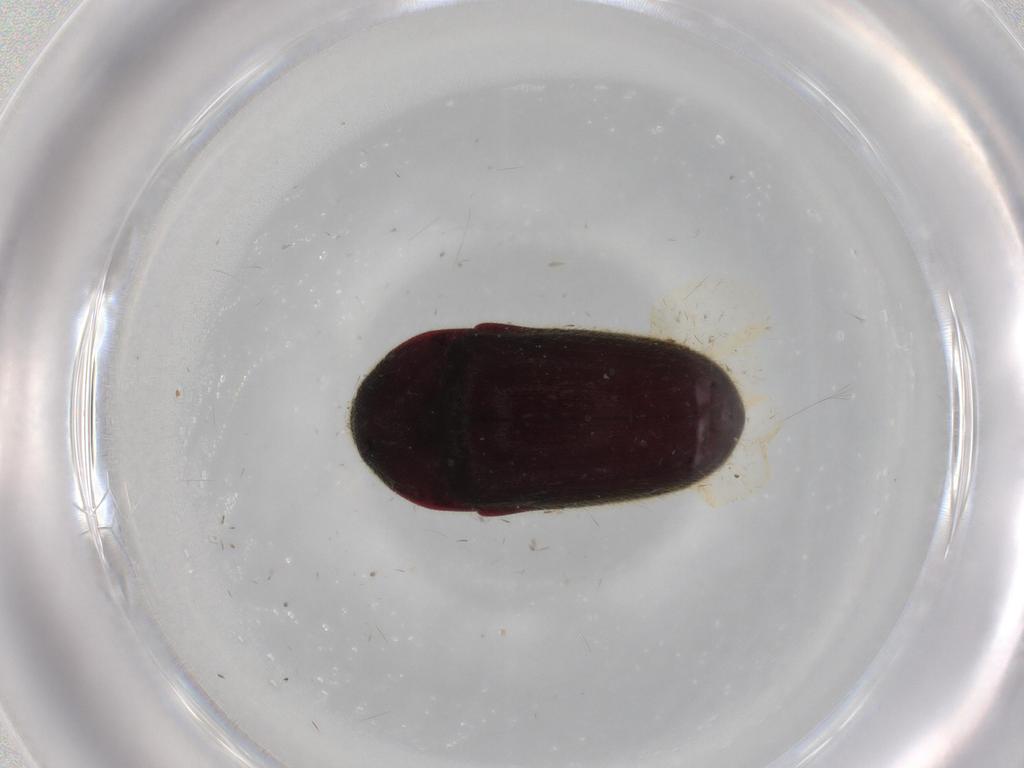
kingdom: Animalia
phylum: Arthropoda
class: Insecta
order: Coleoptera
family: Throscidae
